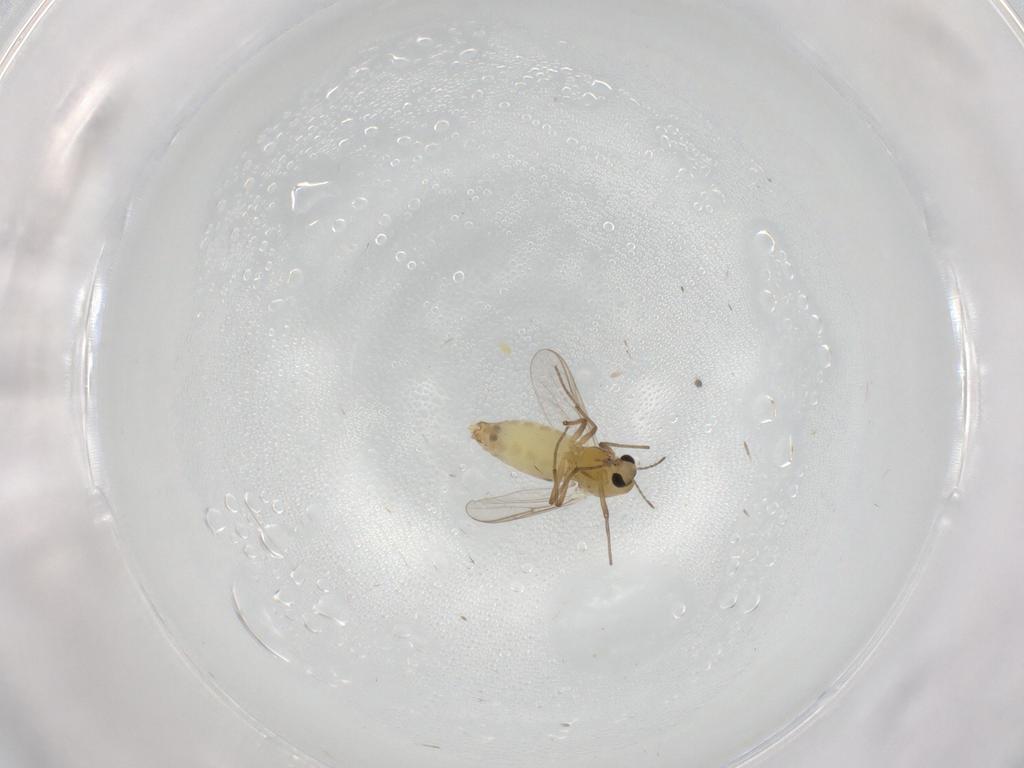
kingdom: Animalia
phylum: Arthropoda
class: Insecta
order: Diptera
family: Chironomidae
